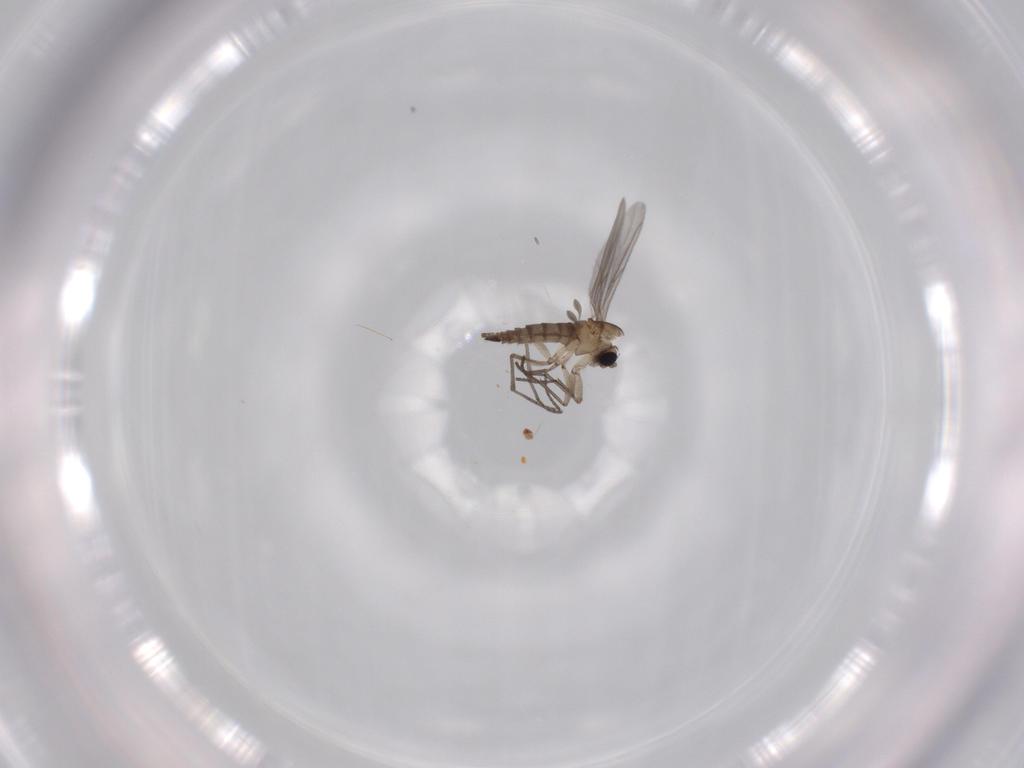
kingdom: Animalia
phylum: Arthropoda
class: Insecta
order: Diptera
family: Sciaridae
